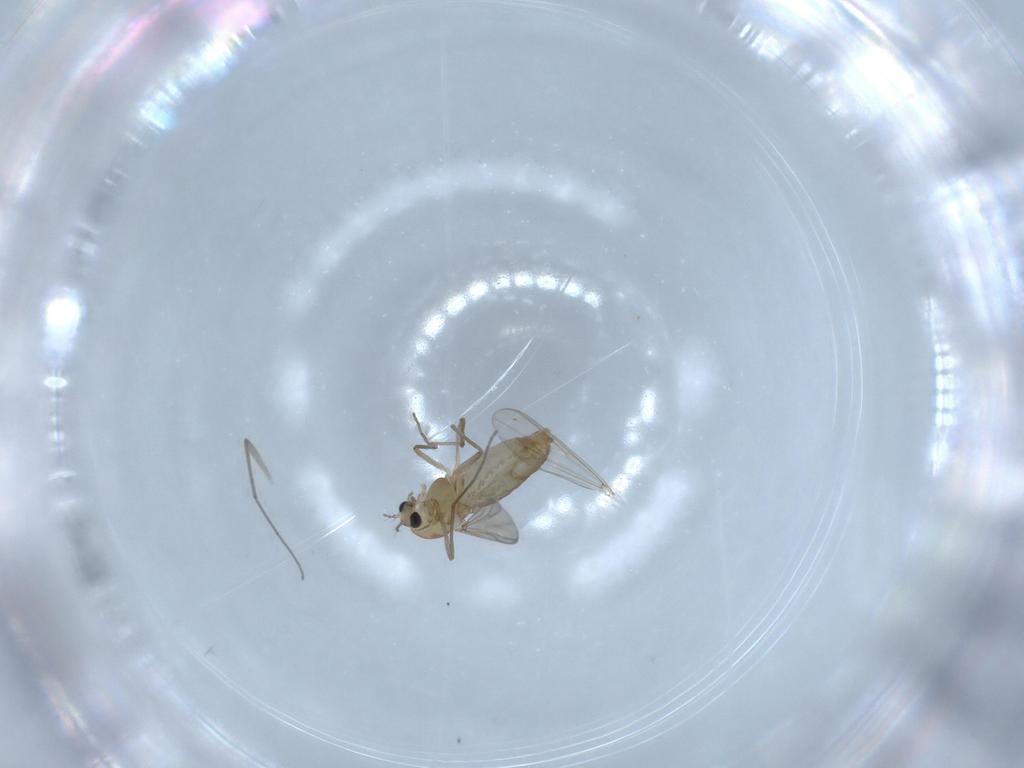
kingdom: Animalia
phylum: Arthropoda
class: Insecta
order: Diptera
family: Chironomidae
